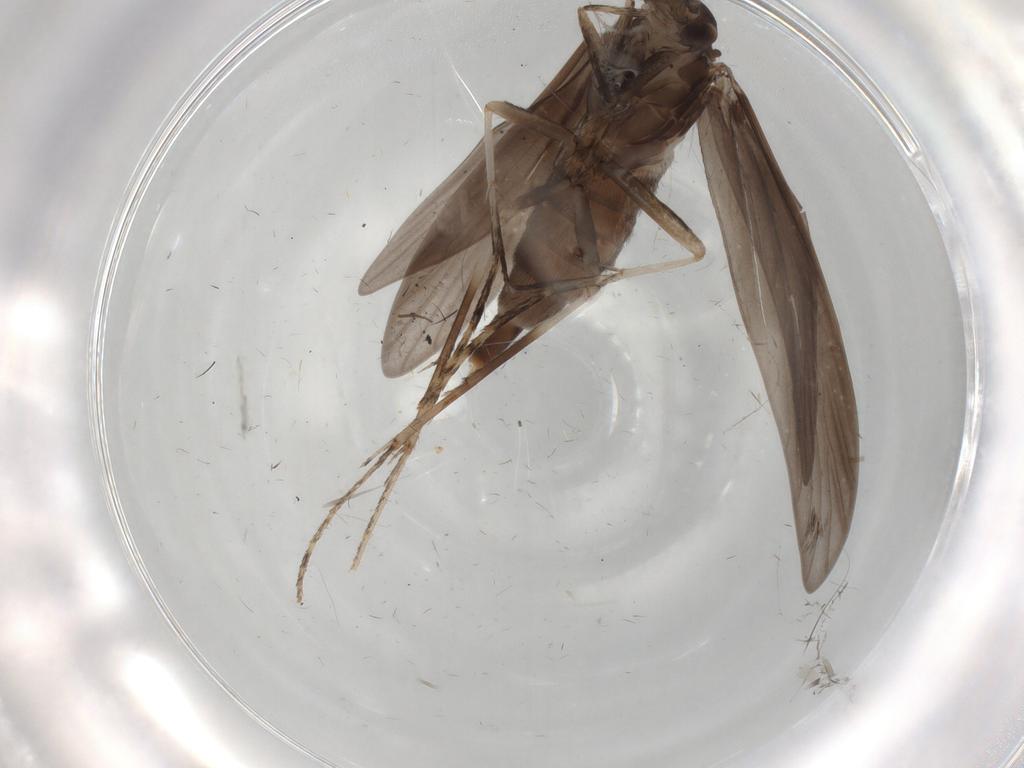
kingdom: Animalia
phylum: Arthropoda
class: Insecta
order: Trichoptera
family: Xiphocentronidae
